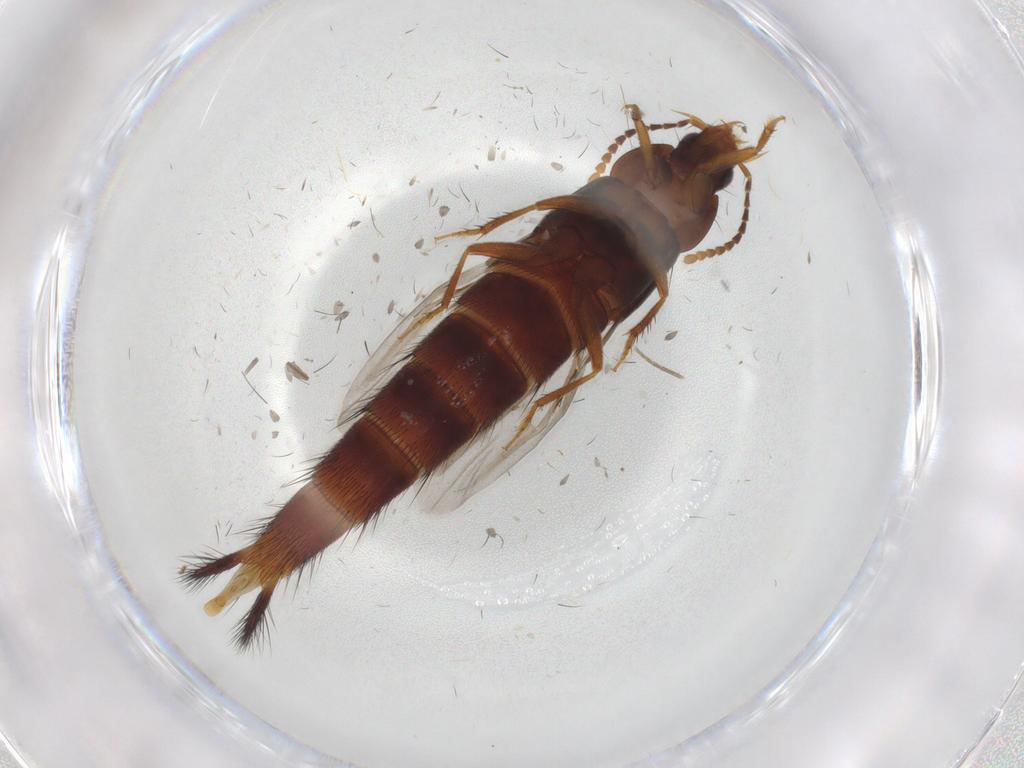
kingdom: Animalia
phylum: Arthropoda
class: Insecta
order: Coleoptera
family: Staphylinidae
